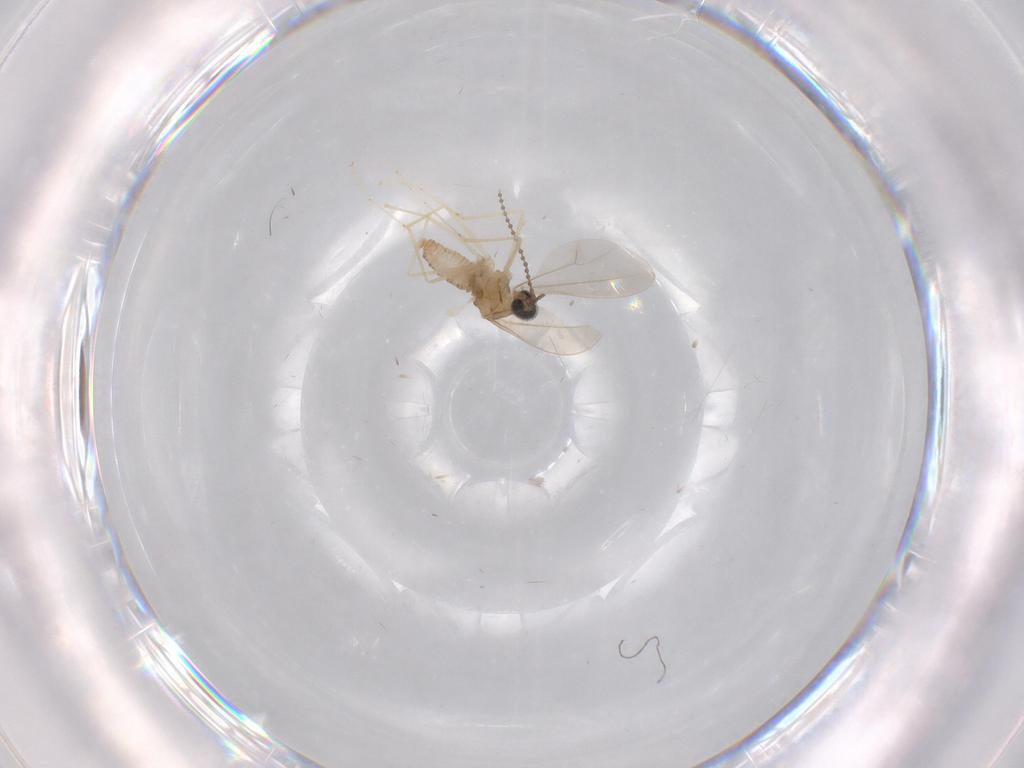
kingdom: Animalia
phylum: Arthropoda
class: Insecta
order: Diptera
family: Cecidomyiidae
